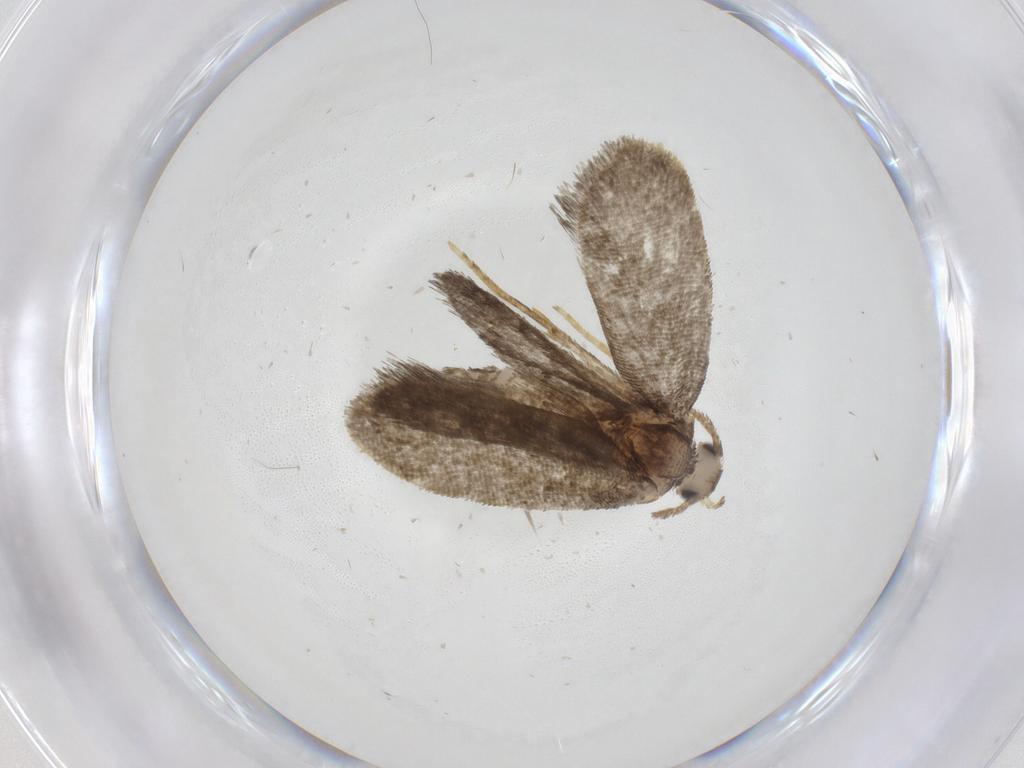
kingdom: Animalia
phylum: Arthropoda
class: Insecta
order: Lepidoptera
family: Psychidae
